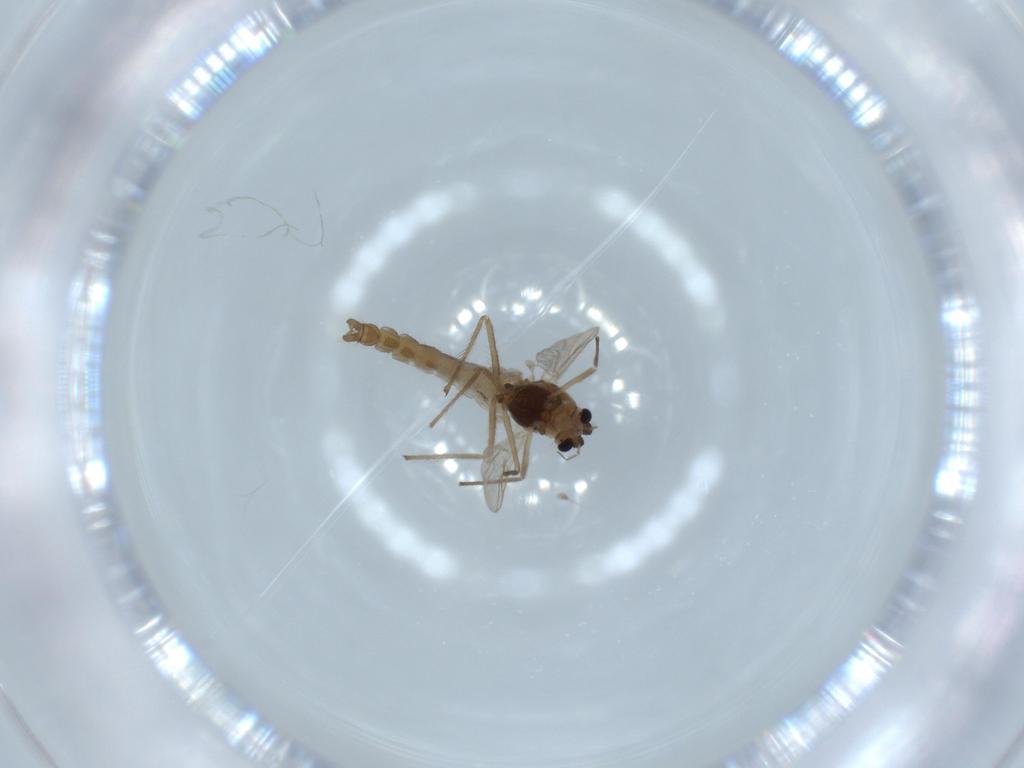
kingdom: Animalia
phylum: Arthropoda
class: Insecta
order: Diptera
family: Chironomidae
